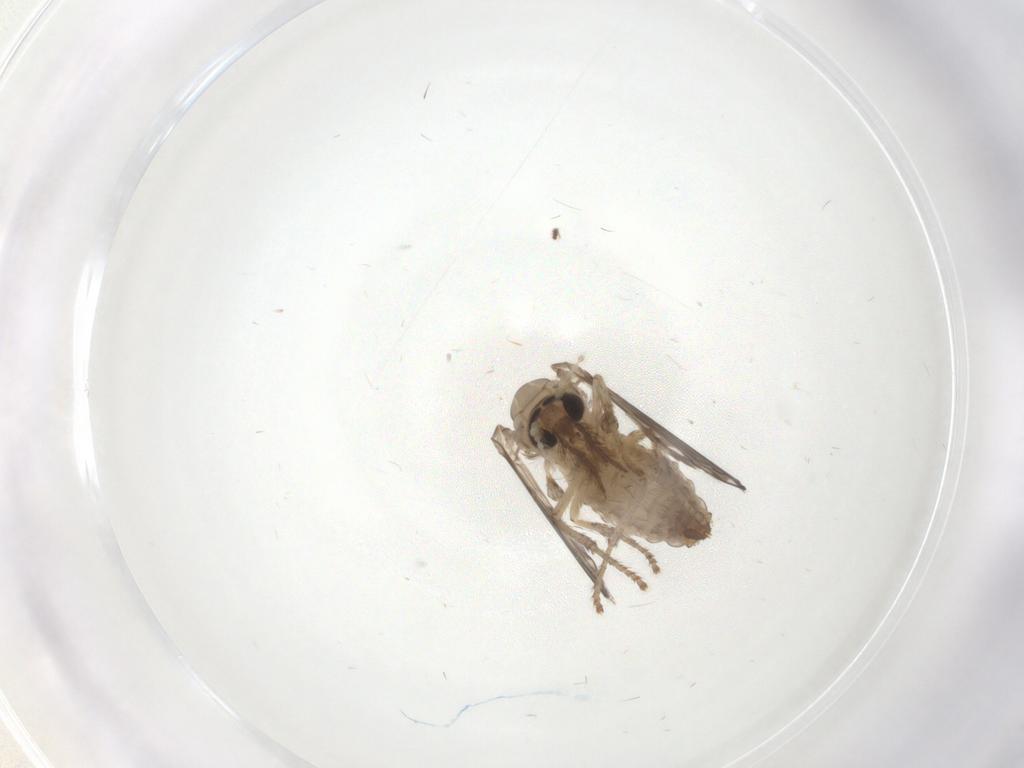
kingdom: Animalia
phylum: Arthropoda
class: Insecta
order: Diptera
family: Psychodidae
